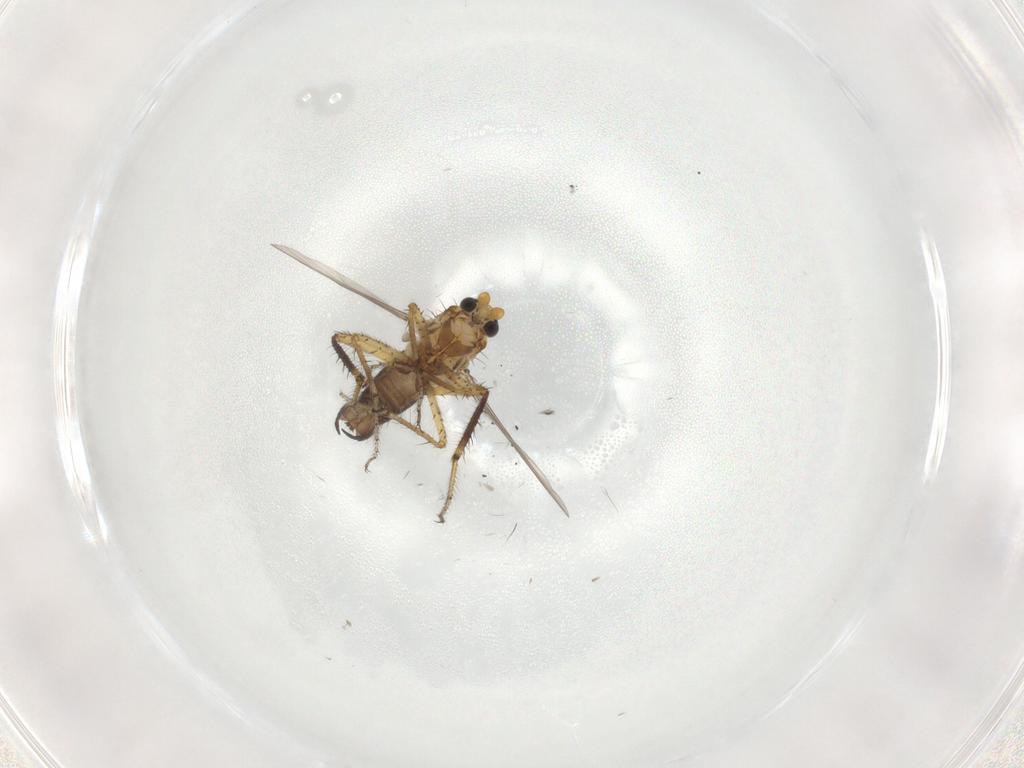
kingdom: Animalia
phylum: Arthropoda
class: Insecta
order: Diptera
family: Ceratopogonidae
